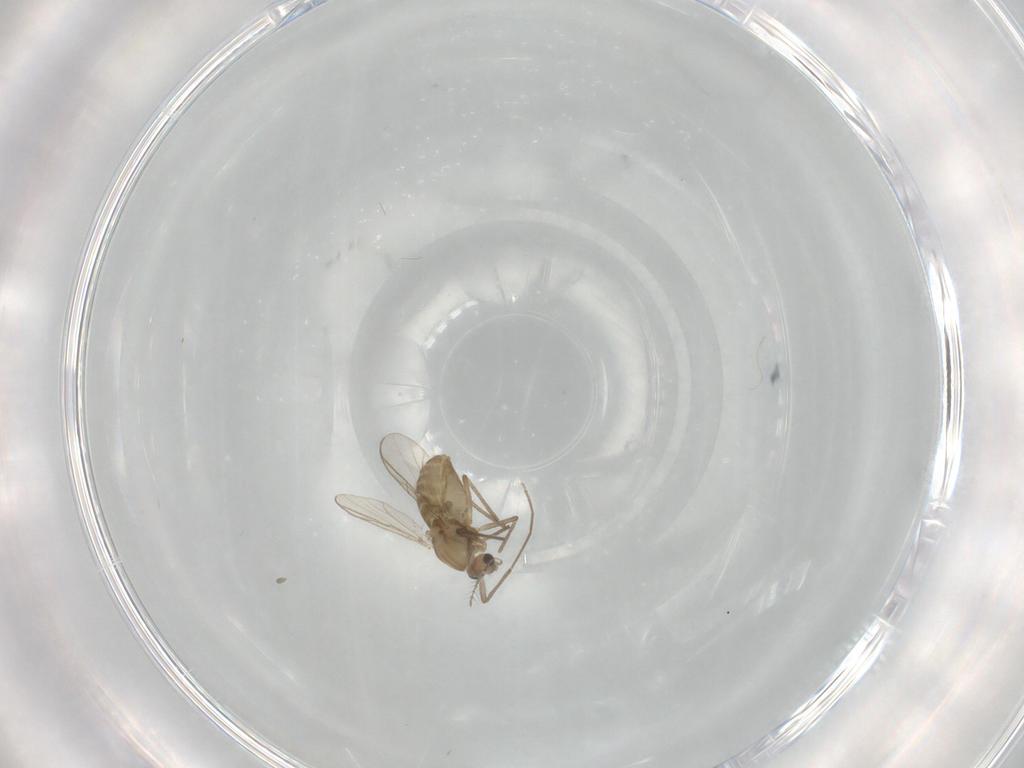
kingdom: Animalia
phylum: Arthropoda
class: Insecta
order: Diptera
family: Chironomidae
